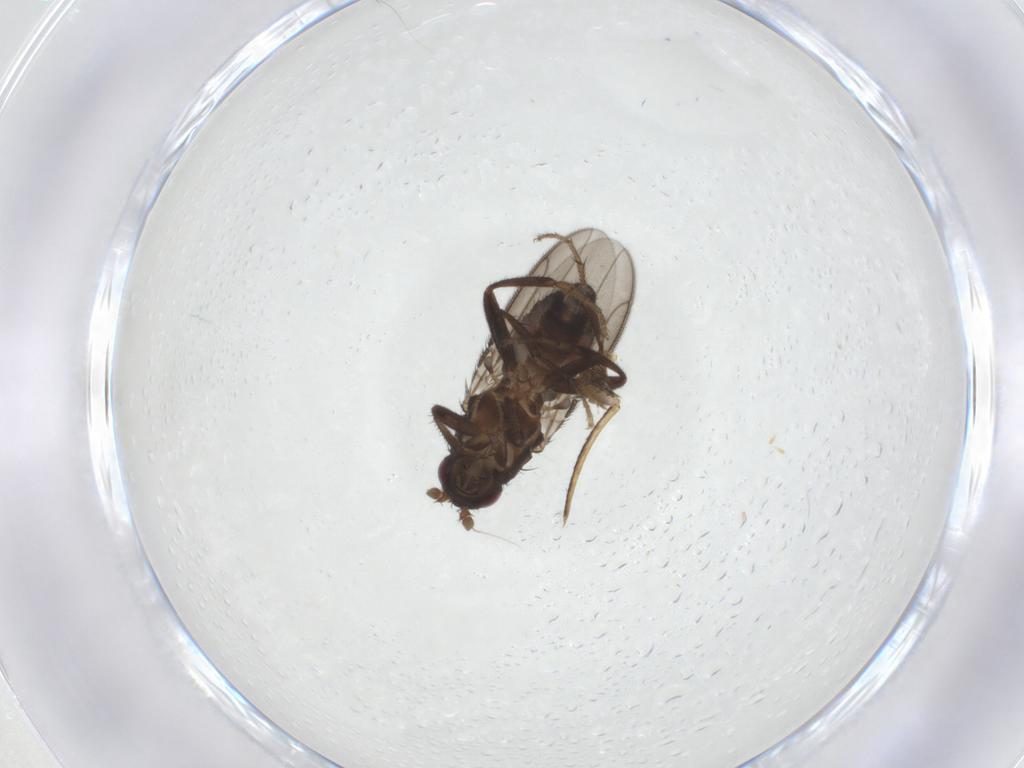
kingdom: Animalia
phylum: Arthropoda
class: Insecta
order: Diptera
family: Sphaeroceridae
